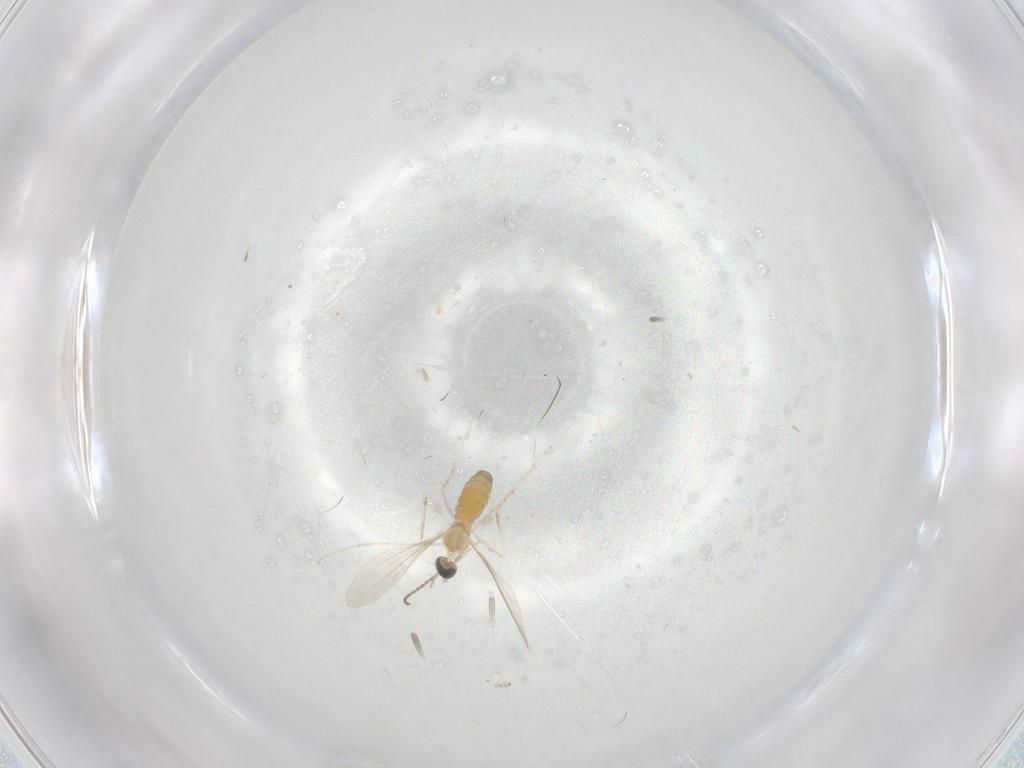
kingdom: Animalia
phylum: Arthropoda
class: Insecta
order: Diptera
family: Cecidomyiidae
